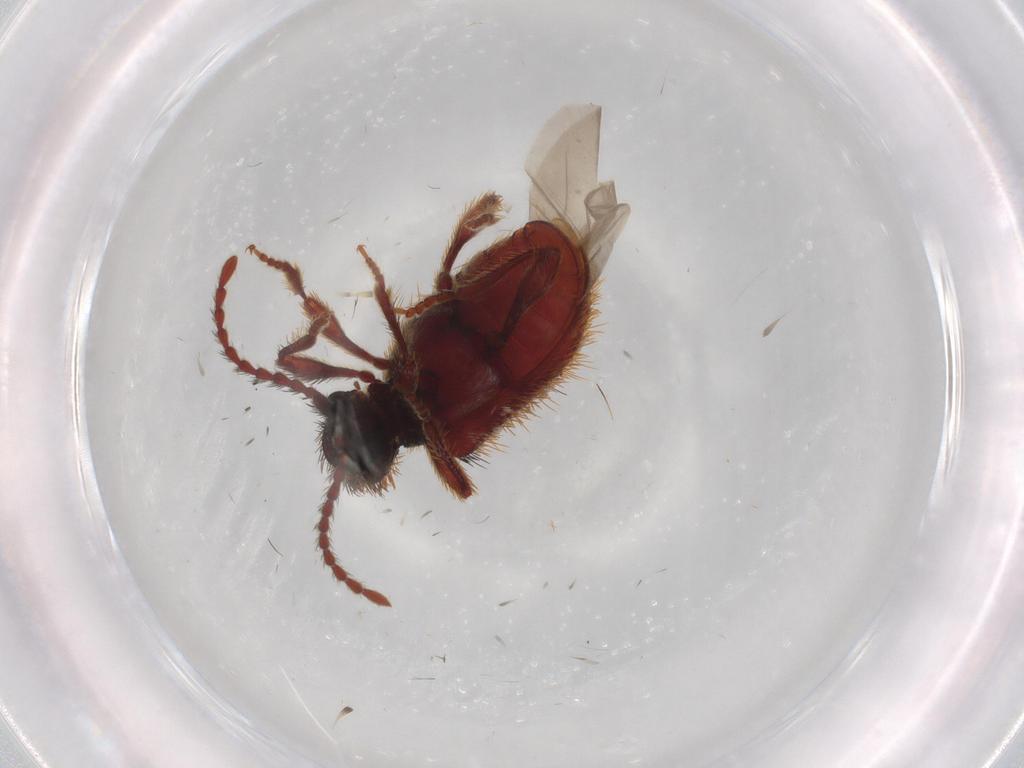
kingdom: Animalia
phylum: Arthropoda
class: Insecta
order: Coleoptera
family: Ptinidae
